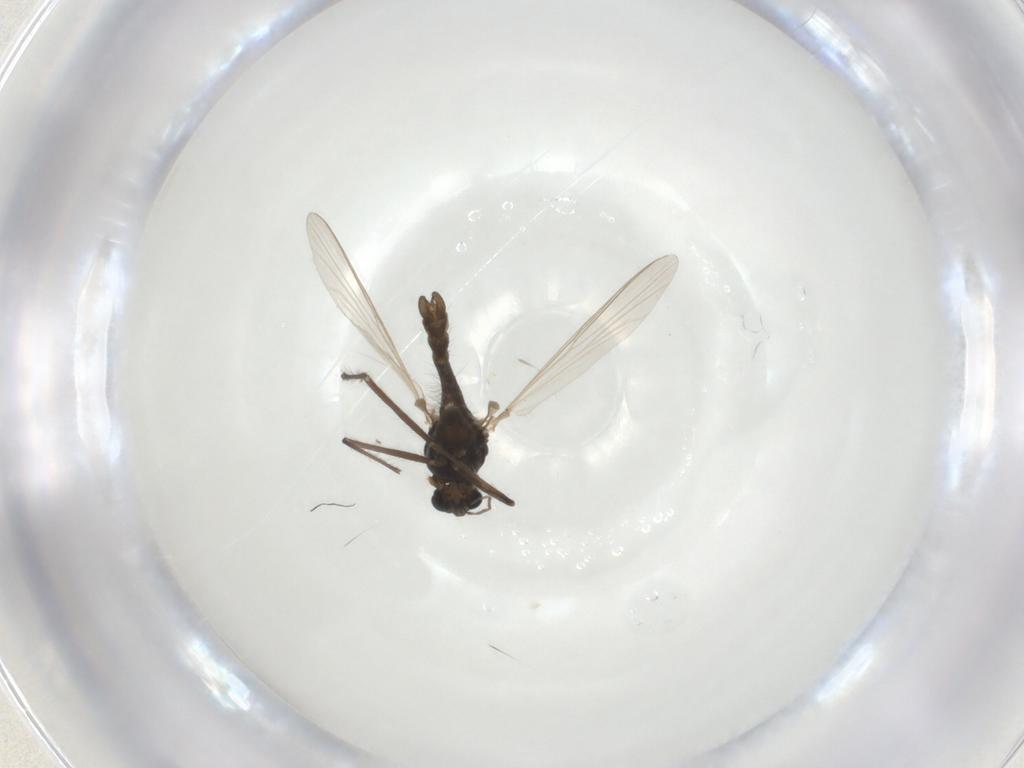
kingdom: Animalia
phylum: Arthropoda
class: Insecta
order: Diptera
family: Chironomidae
